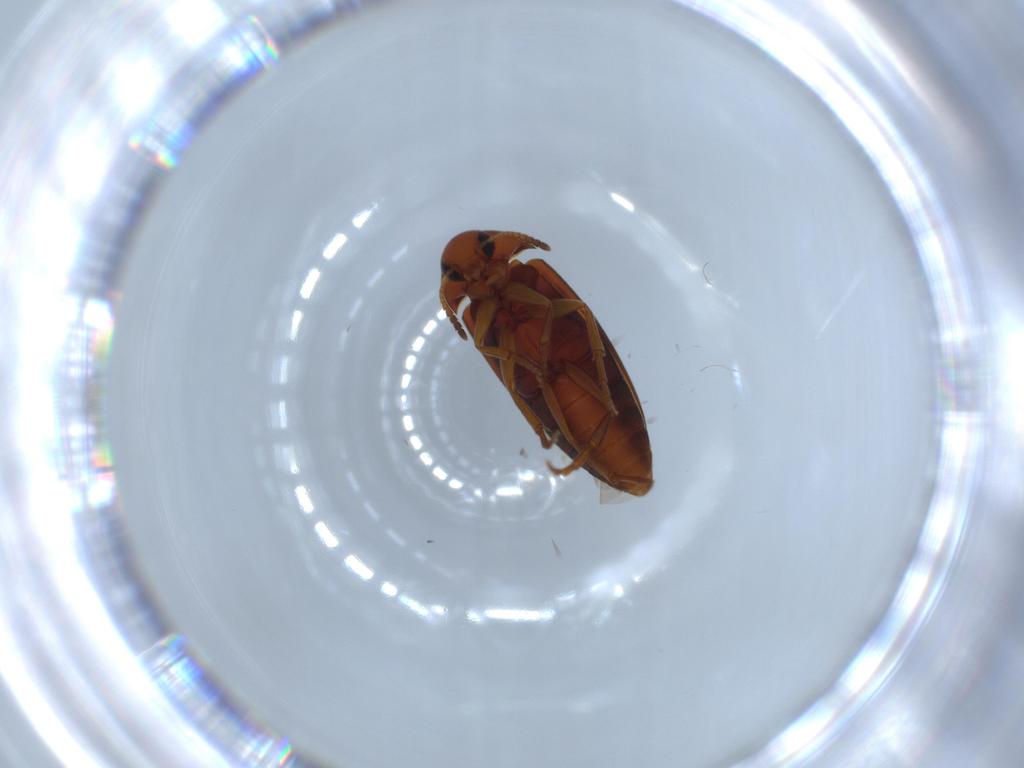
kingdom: Animalia
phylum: Arthropoda
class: Insecta
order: Coleoptera
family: Scraptiidae
